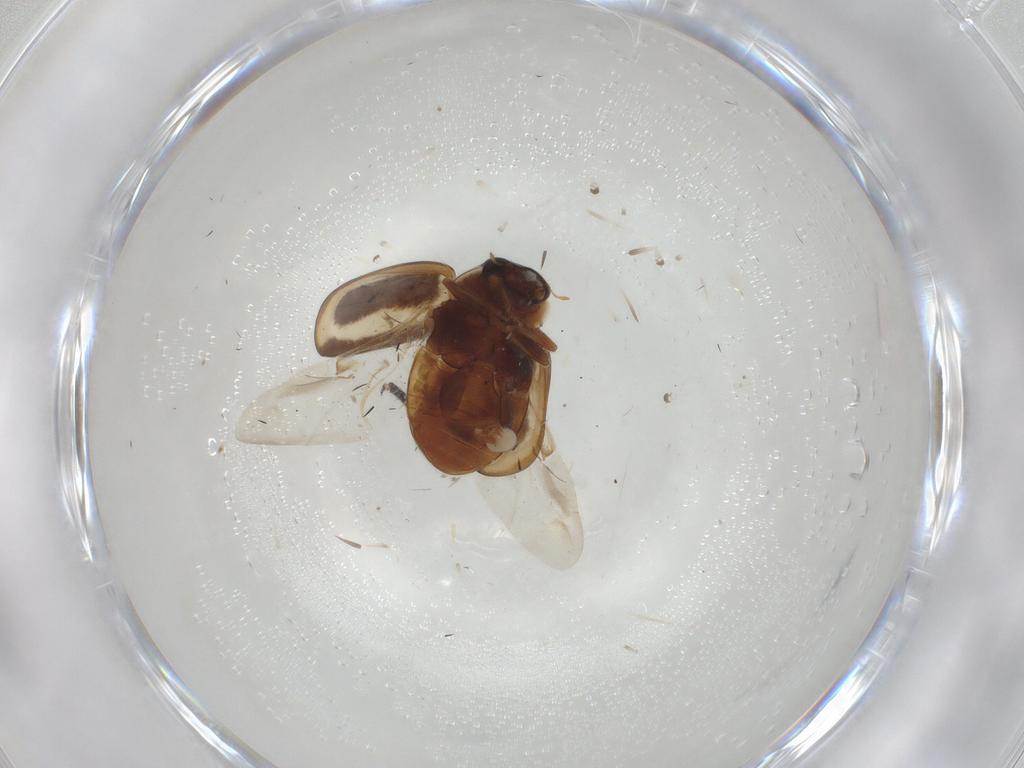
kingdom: Animalia
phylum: Arthropoda
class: Insecta
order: Coleoptera
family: Coccinellidae
